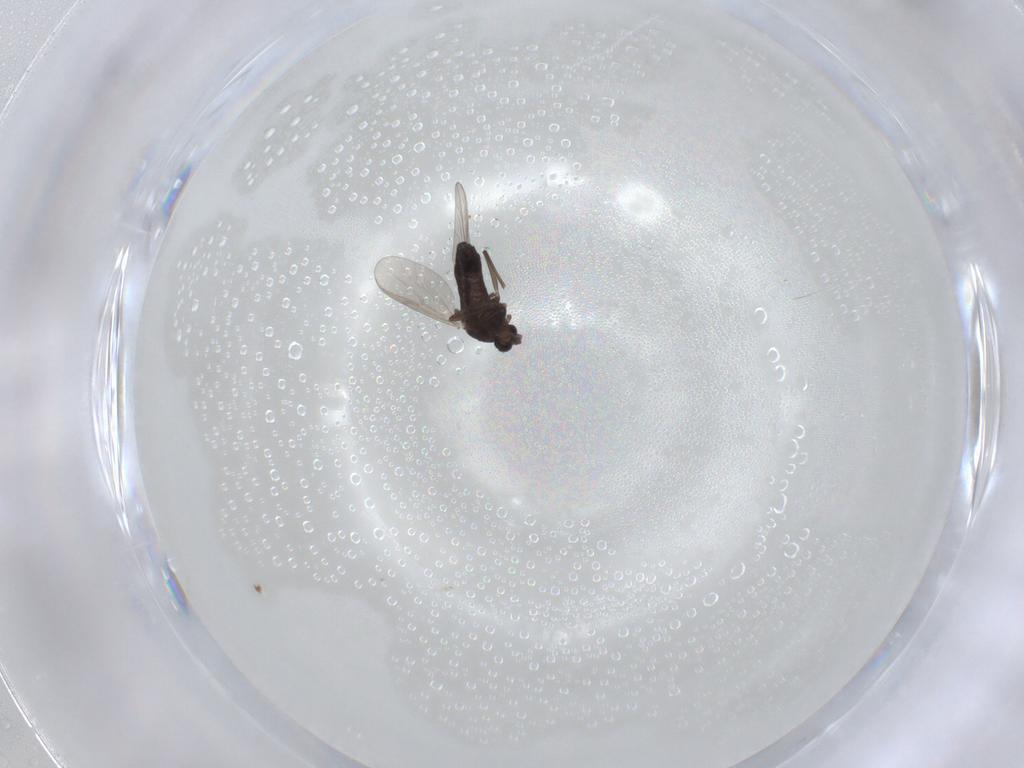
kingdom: Animalia
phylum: Arthropoda
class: Insecta
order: Diptera
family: Chironomidae
